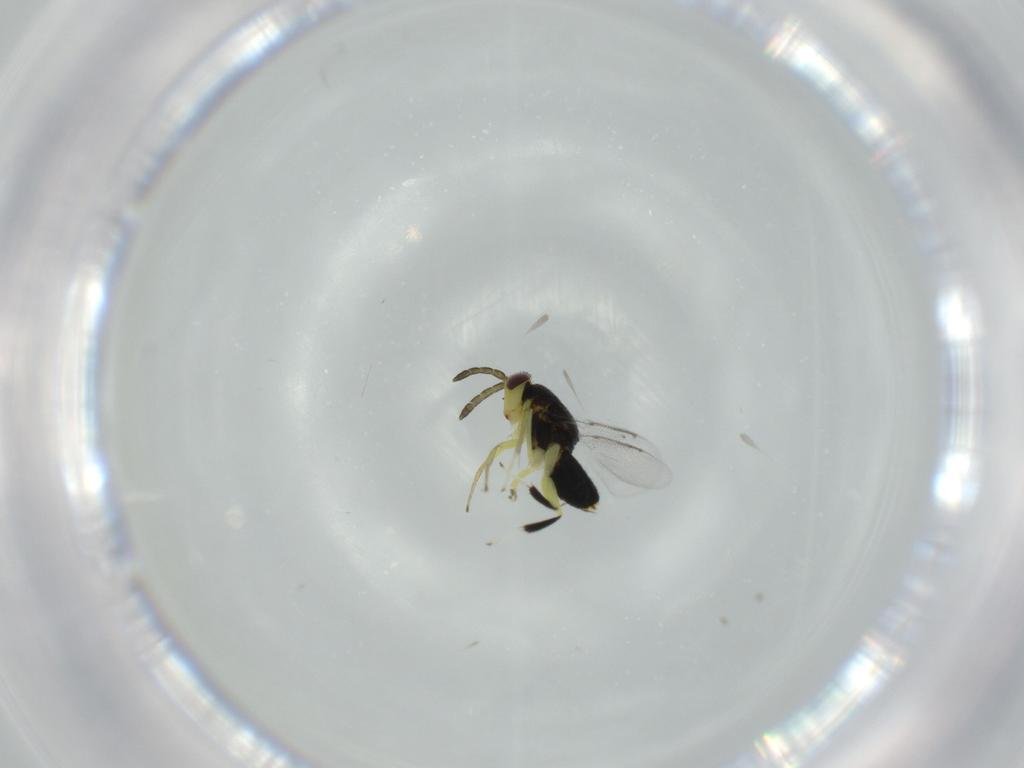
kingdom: Animalia
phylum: Arthropoda
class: Insecta
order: Hymenoptera
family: Aphelinidae
